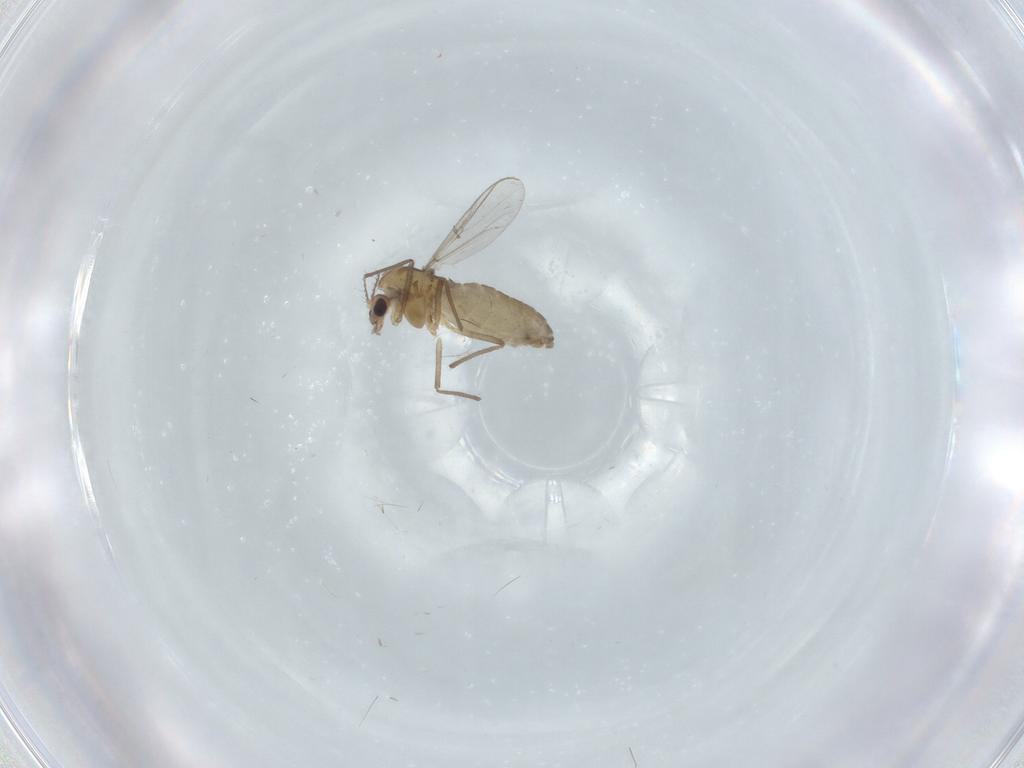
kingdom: Animalia
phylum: Arthropoda
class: Insecta
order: Diptera
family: Chironomidae
